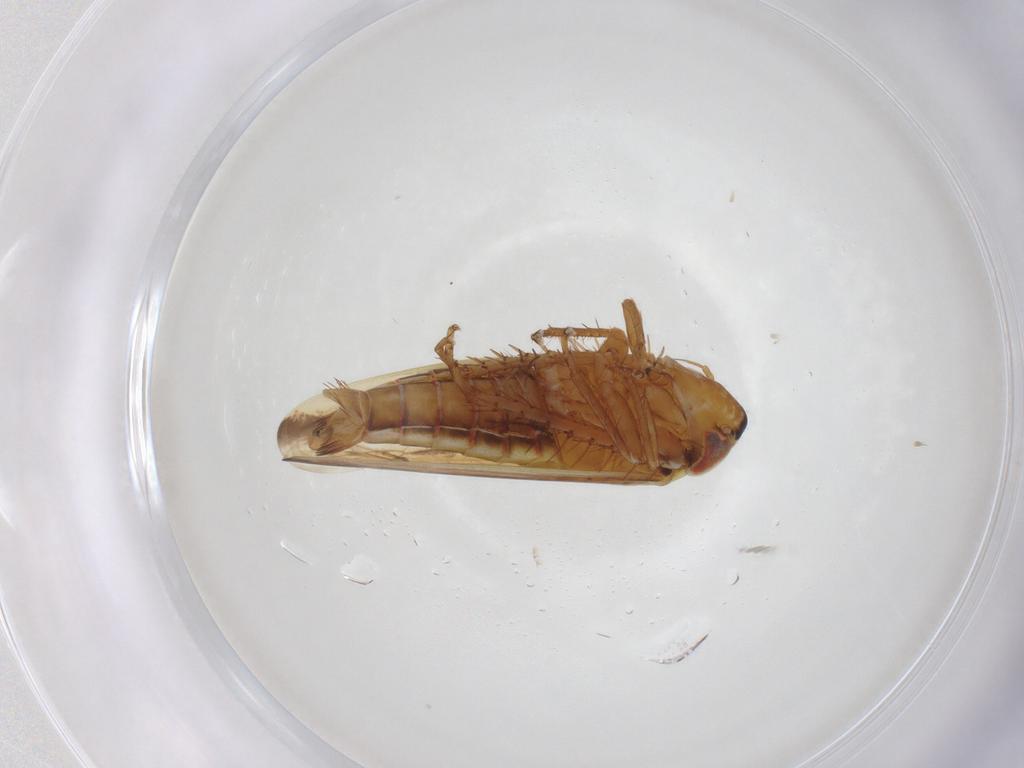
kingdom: Animalia
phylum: Arthropoda
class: Insecta
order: Hemiptera
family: Cicadellidae
